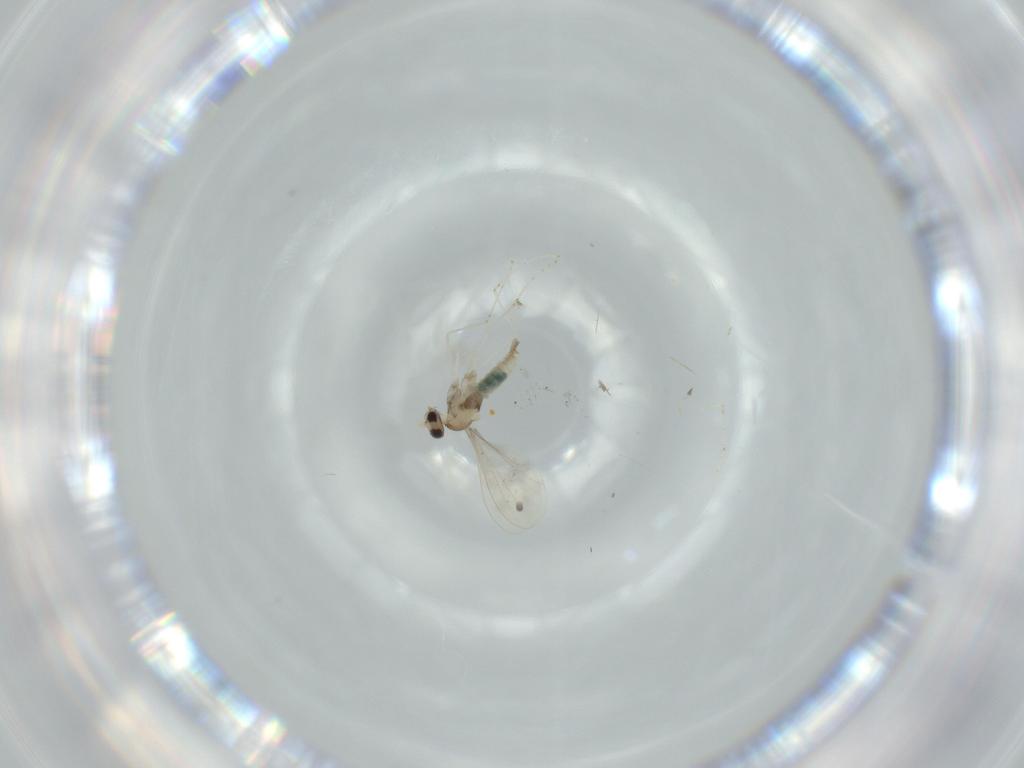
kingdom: Animalia
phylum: Arthropoda
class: Insecta
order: Diptera
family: Cecidomyiidae
